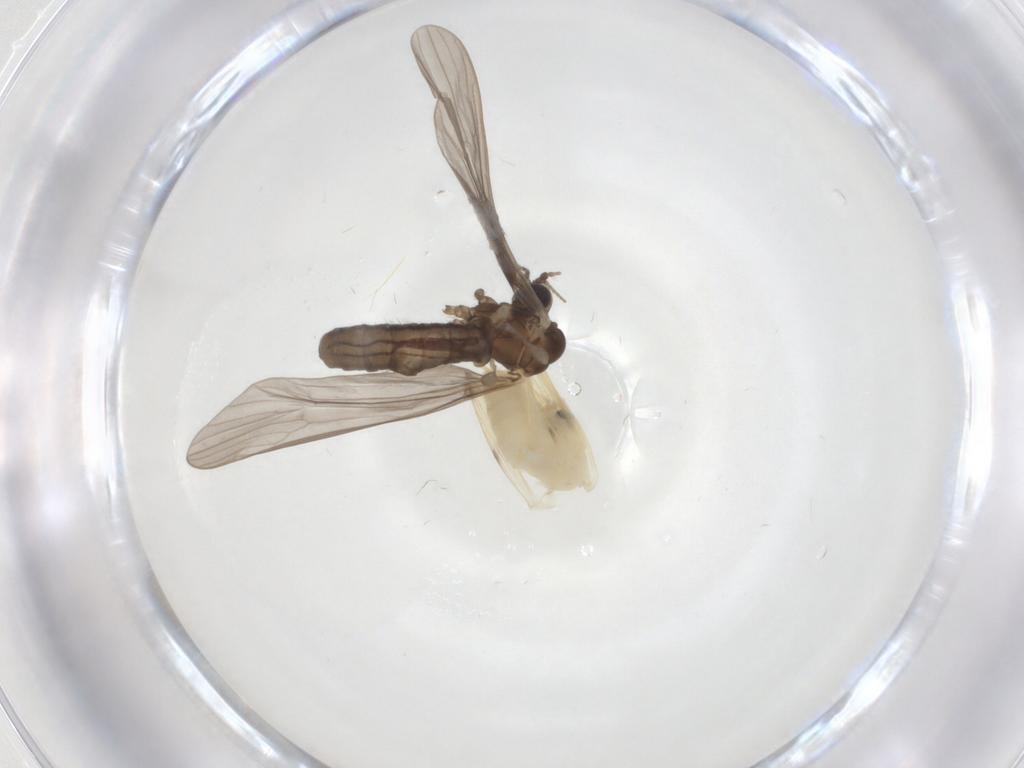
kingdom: Animalia
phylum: Arthropoda
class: Insecta
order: Diptera
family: Limoniidae
